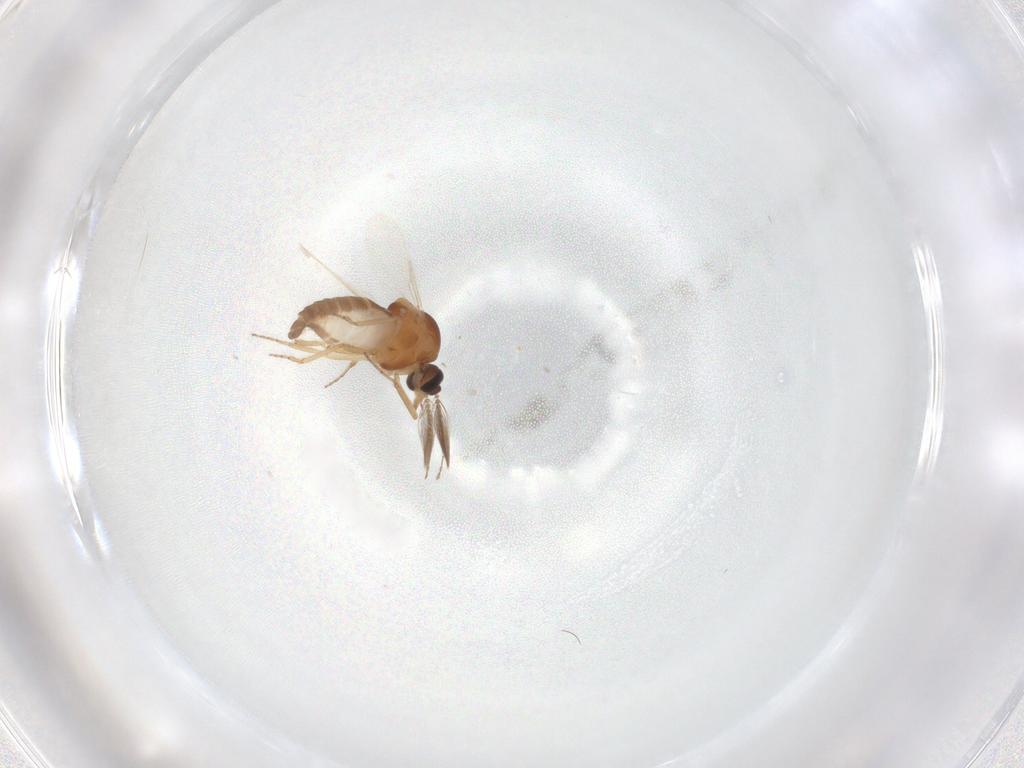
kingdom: Animalia
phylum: Arthropoda
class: Insecta
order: Diptera
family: Ceratopogonidae
